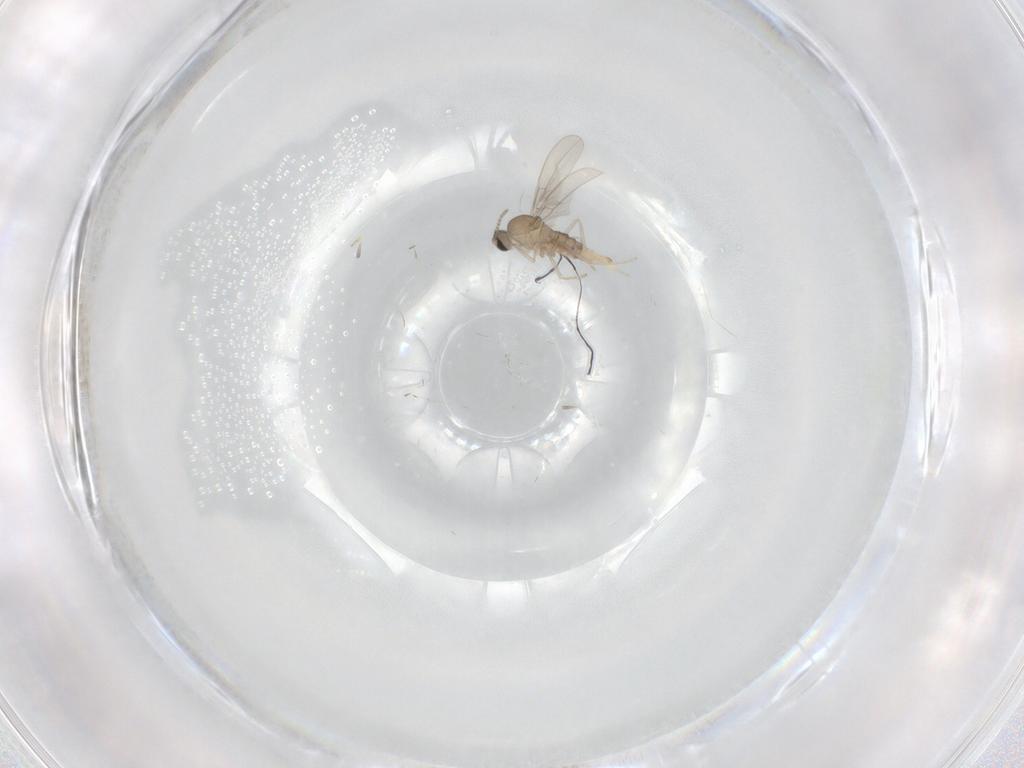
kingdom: Animalia
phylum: Arthropoda
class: Insecta
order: Diptera
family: Cecidomyiidae
